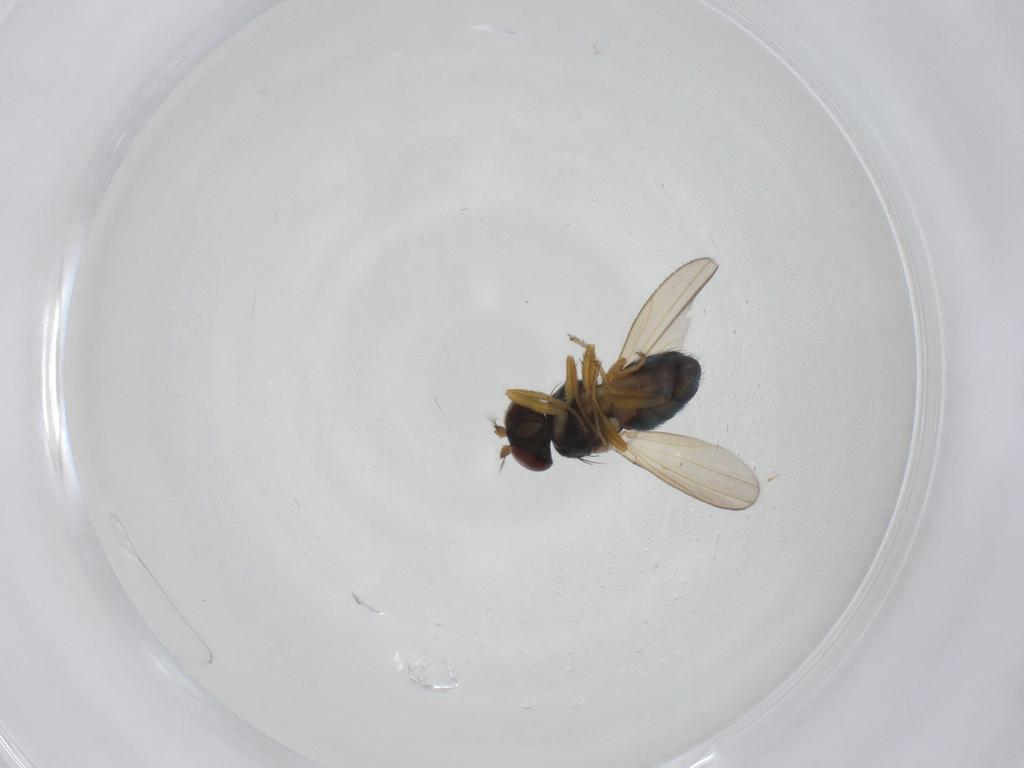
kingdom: Animalia
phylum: Arthropoda
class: Insecta
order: Diptera
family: Ephydridae
